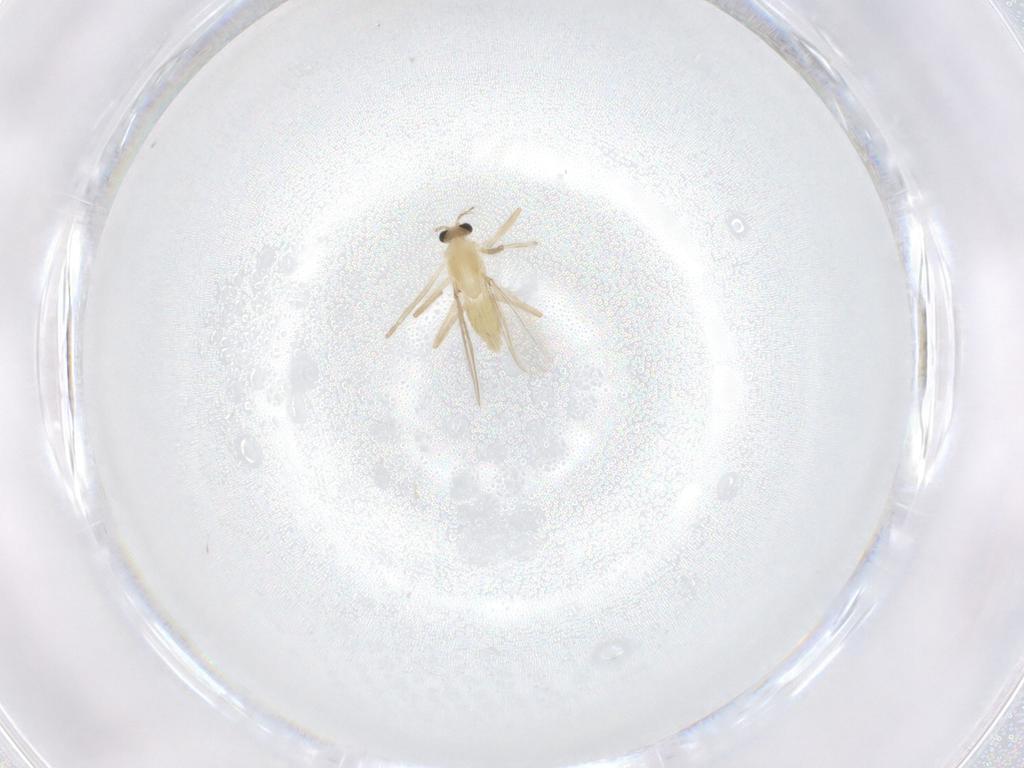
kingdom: Animalia
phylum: Arthropoda
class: Insecta
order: Diptera
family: Chironomidae
